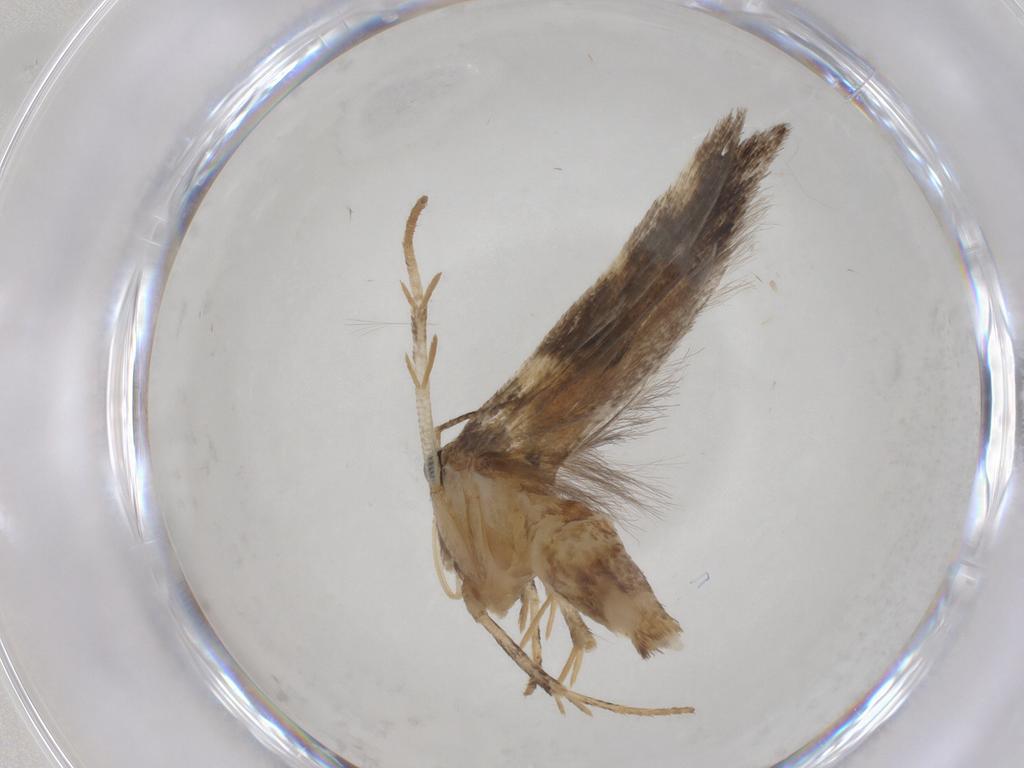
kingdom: Animalia
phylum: Arthropoda
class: Insecta
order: Lepidoptera
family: Gelechiidae
